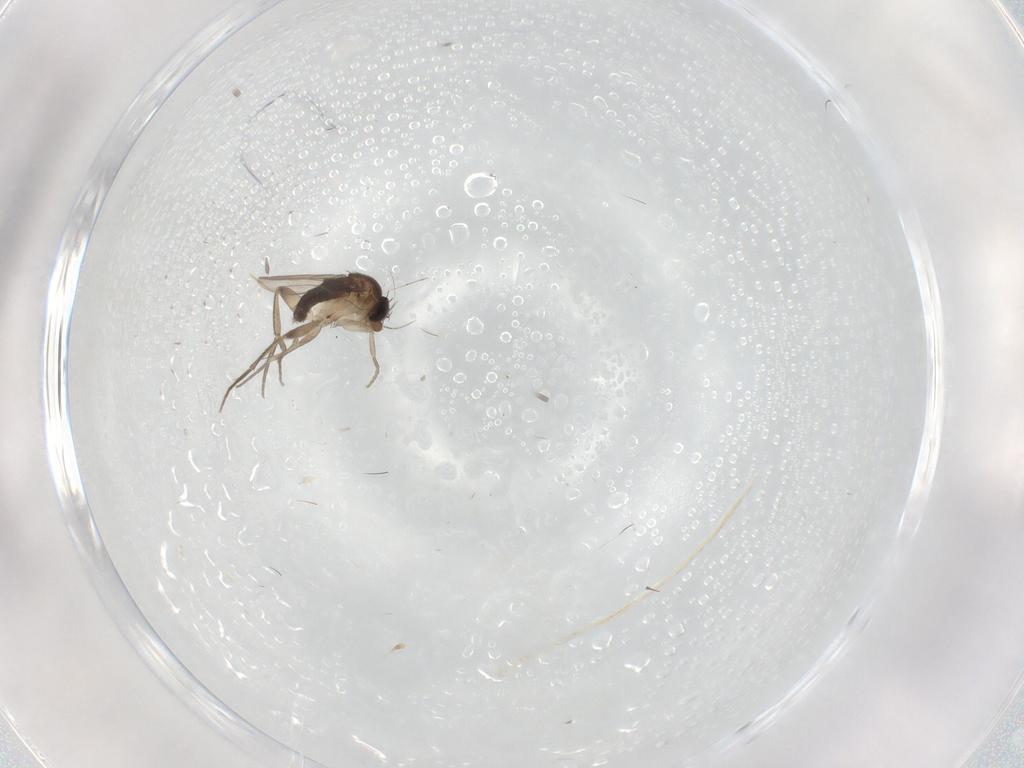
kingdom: Animalia
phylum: Arthropoda
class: Insecta
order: Diptera
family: Phoridae
